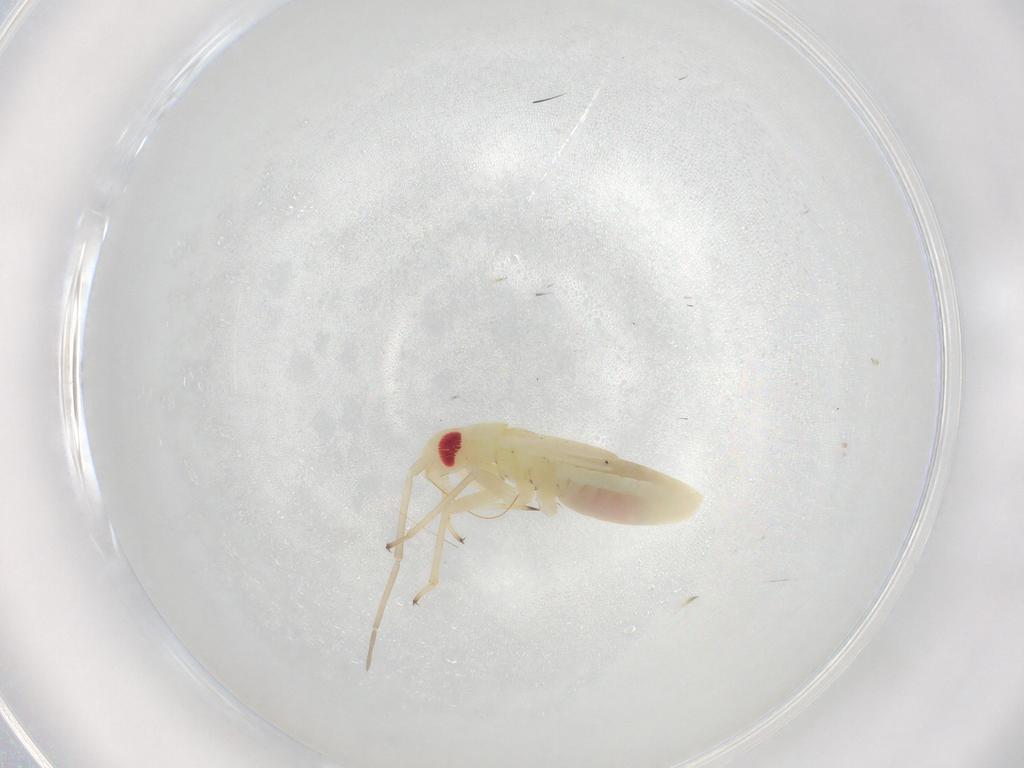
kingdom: Animalia
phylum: Arthropoda
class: Insecta
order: Hemiptera
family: Miridae
